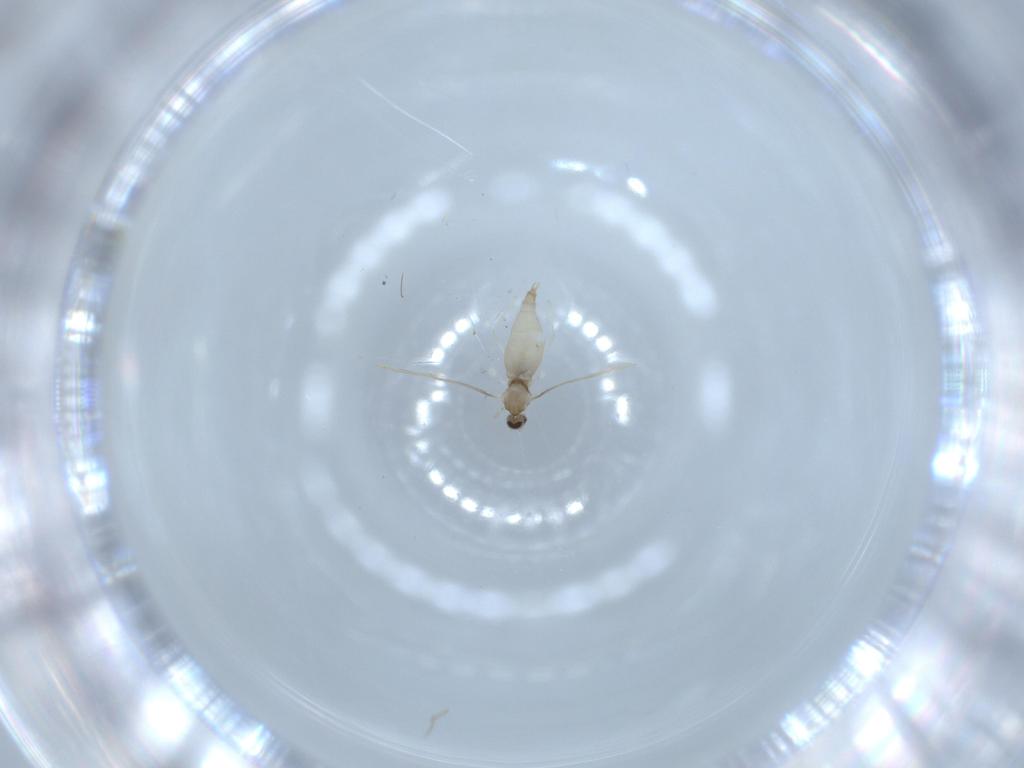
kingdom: Animalia
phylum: Arthropoda
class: Insecta
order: Diptera
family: Cecidomyiidae
